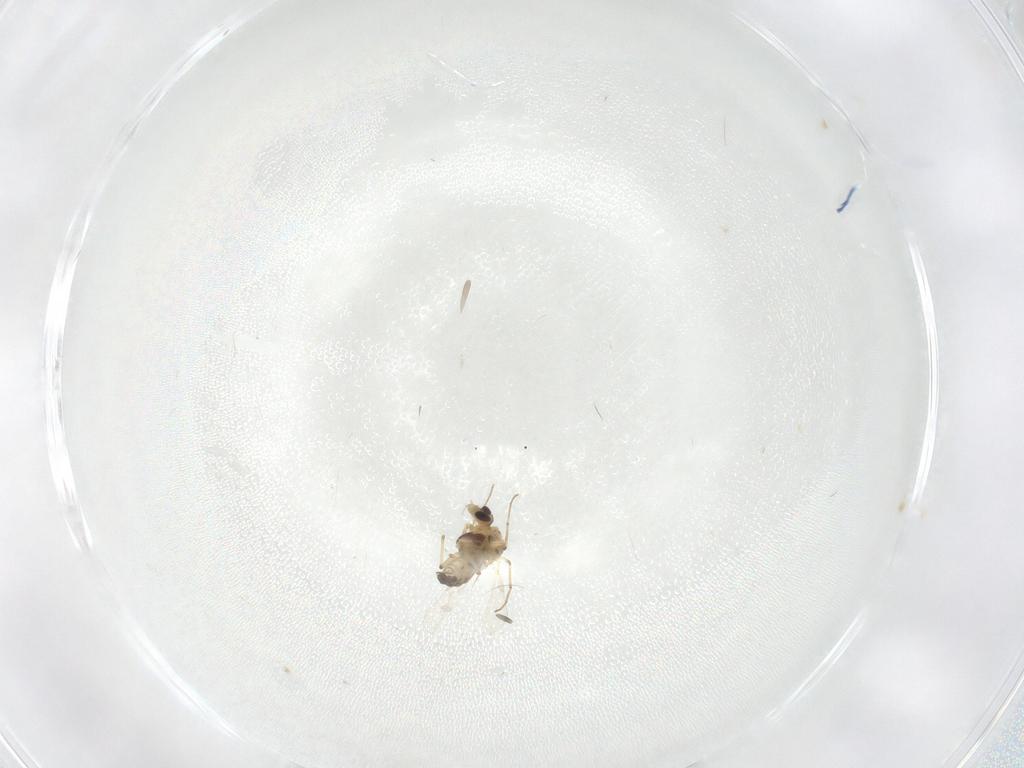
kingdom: Animalia
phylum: Arthropoda
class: Insecta
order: Diptera
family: Chironomidae
